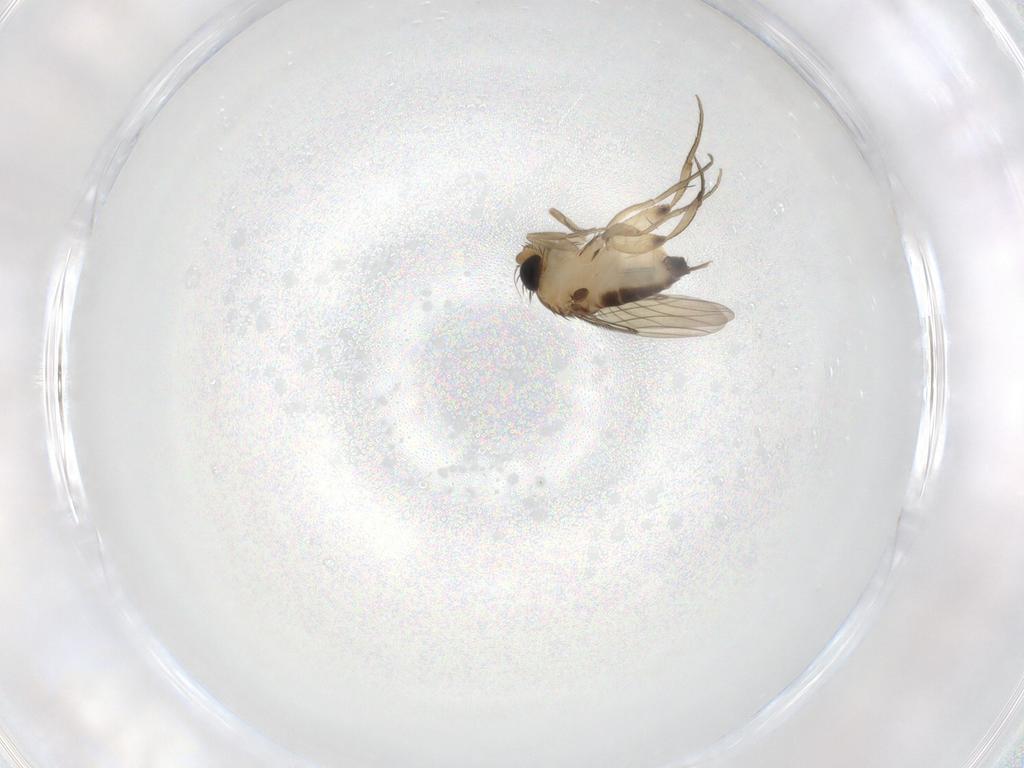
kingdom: Animalia
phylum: Arthropoda
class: Insecta
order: Diptera
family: Phoridae
